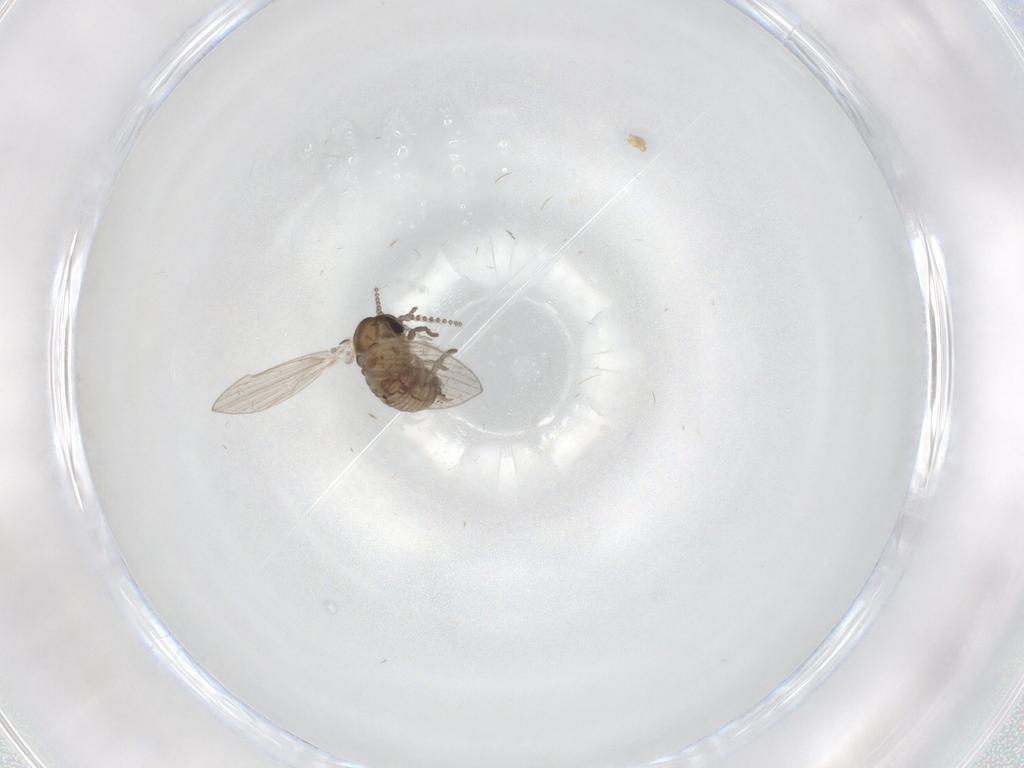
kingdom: Animalia
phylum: Arthropoda
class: Insecta
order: Diptera
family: Psychodidae
